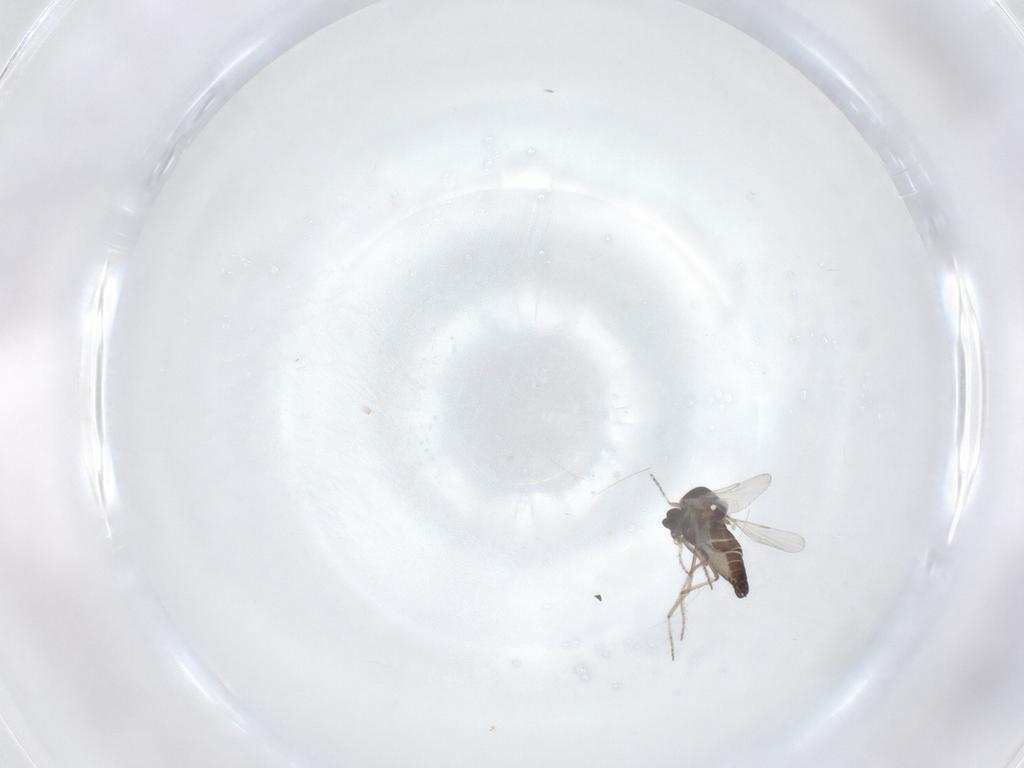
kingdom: Animalia
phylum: Arthropoda
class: Insecta
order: Diptera
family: Ceratopogonidae
